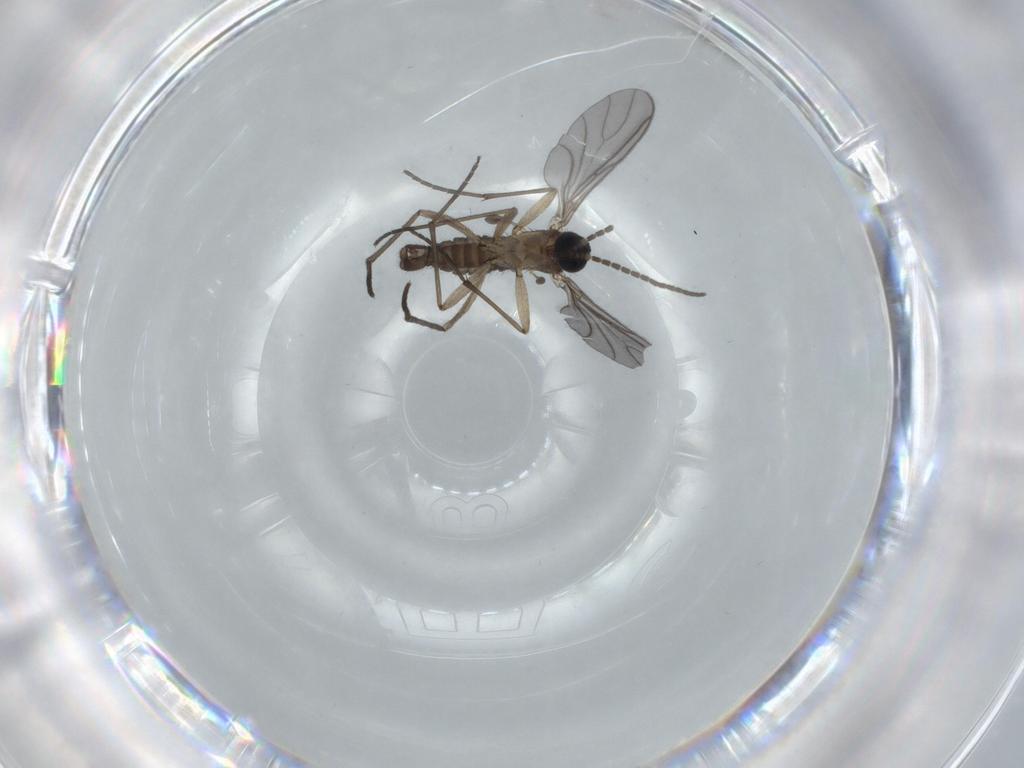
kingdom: Animalia
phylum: Arthropoda
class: Insecta
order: Diptera
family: Sciaridae
